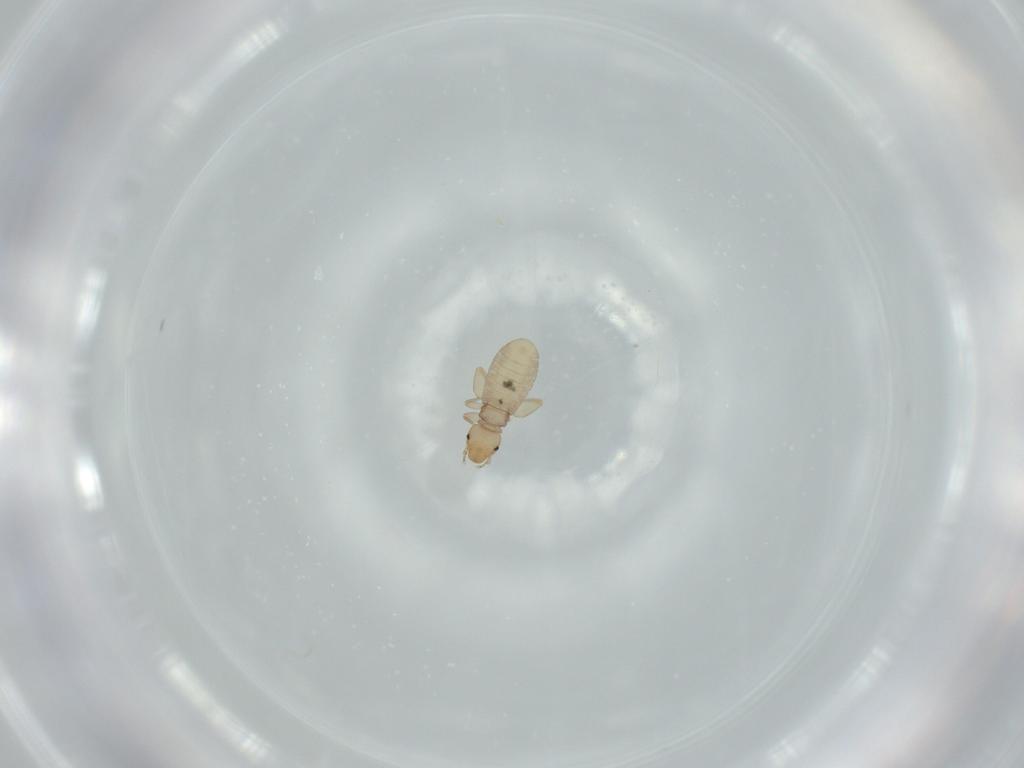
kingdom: Animalia
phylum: Arthropoda
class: Insecta
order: Psocodea
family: Liposcelididae
